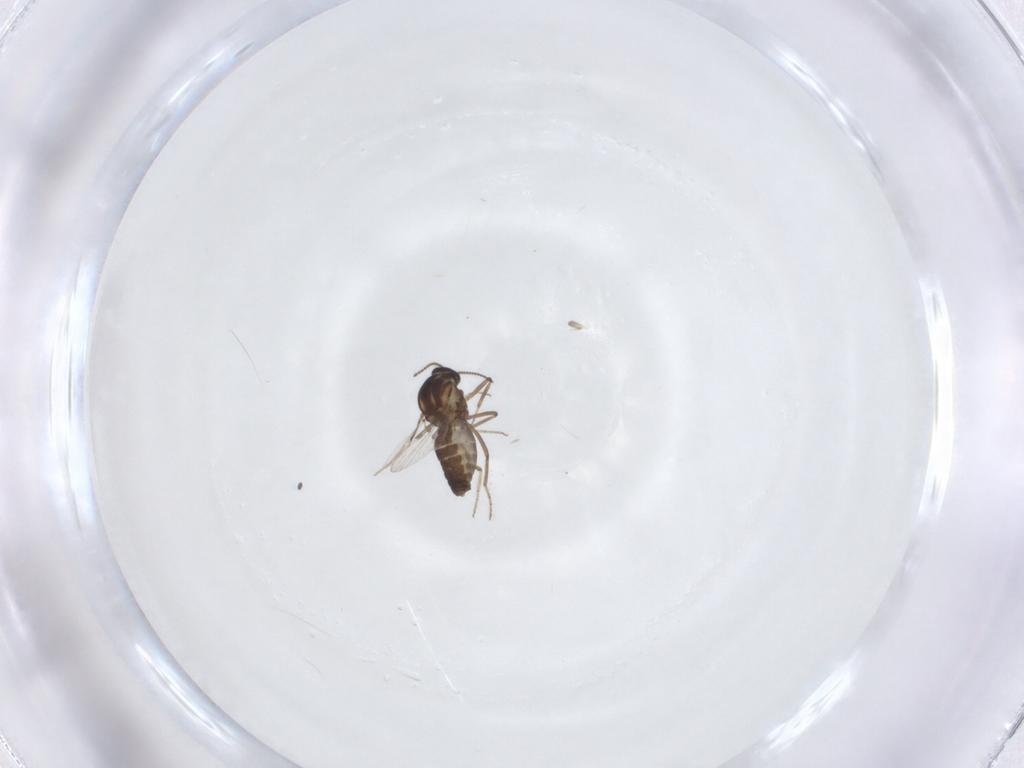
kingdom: Animalia
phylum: Arthropoda
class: Insecta
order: Diptera
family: Ceratopogonidae
